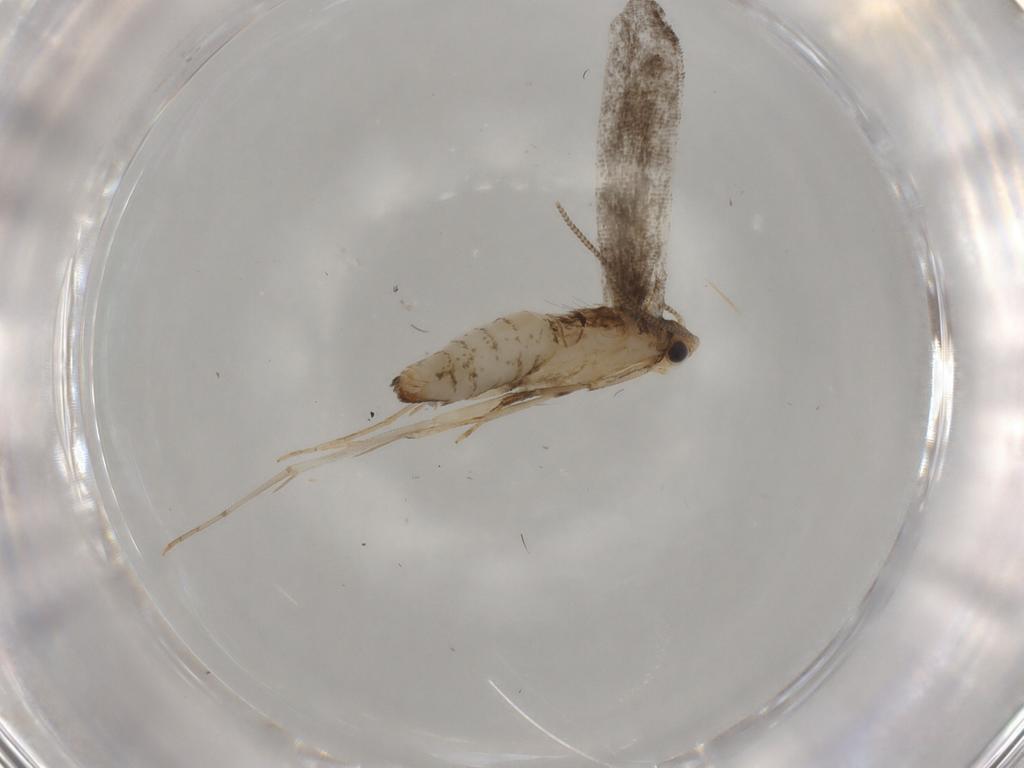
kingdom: Animalia
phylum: Arthropoda
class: Insecta
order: Lepidoptera
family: Tineidae
